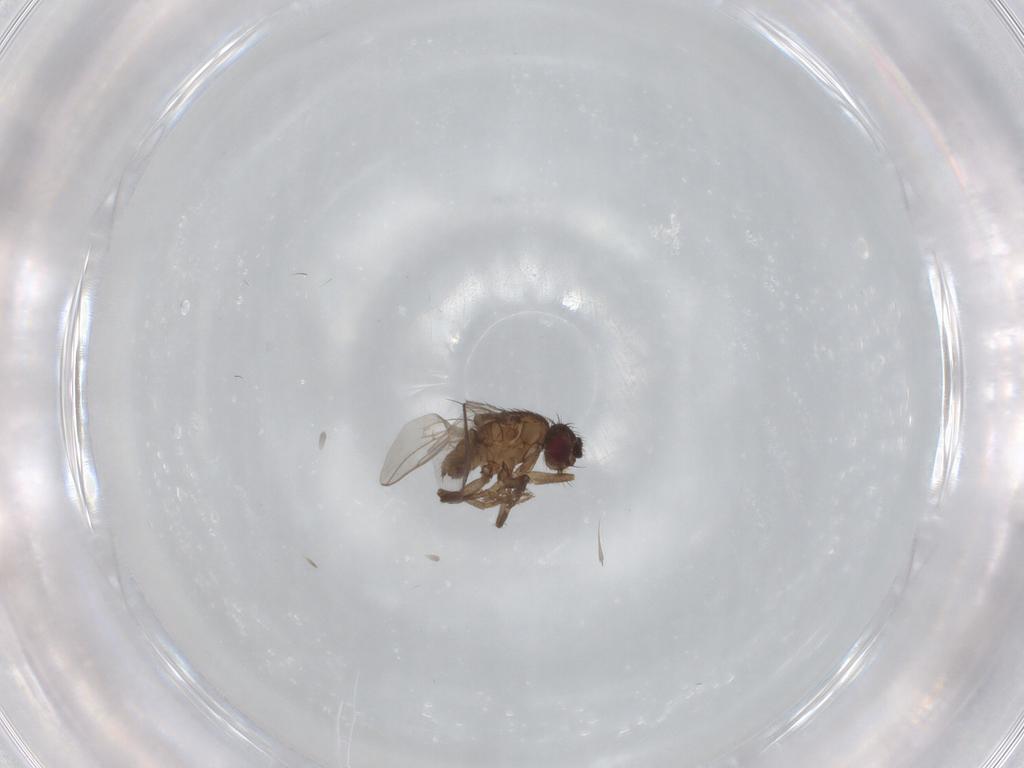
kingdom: Animalia
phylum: Arthropoda
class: Insecta
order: Diptera
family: Sphaeroceridae
